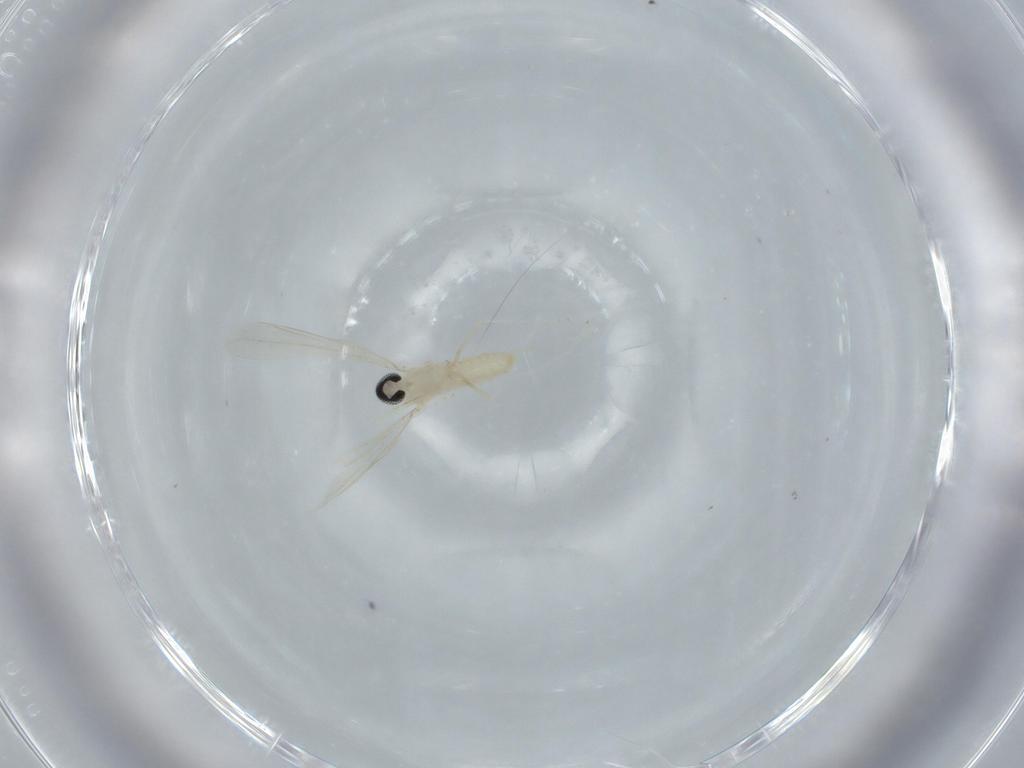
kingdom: Animalia
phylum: Arthropoda
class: Insecta
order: Diptera
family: Cecidomyiidae
